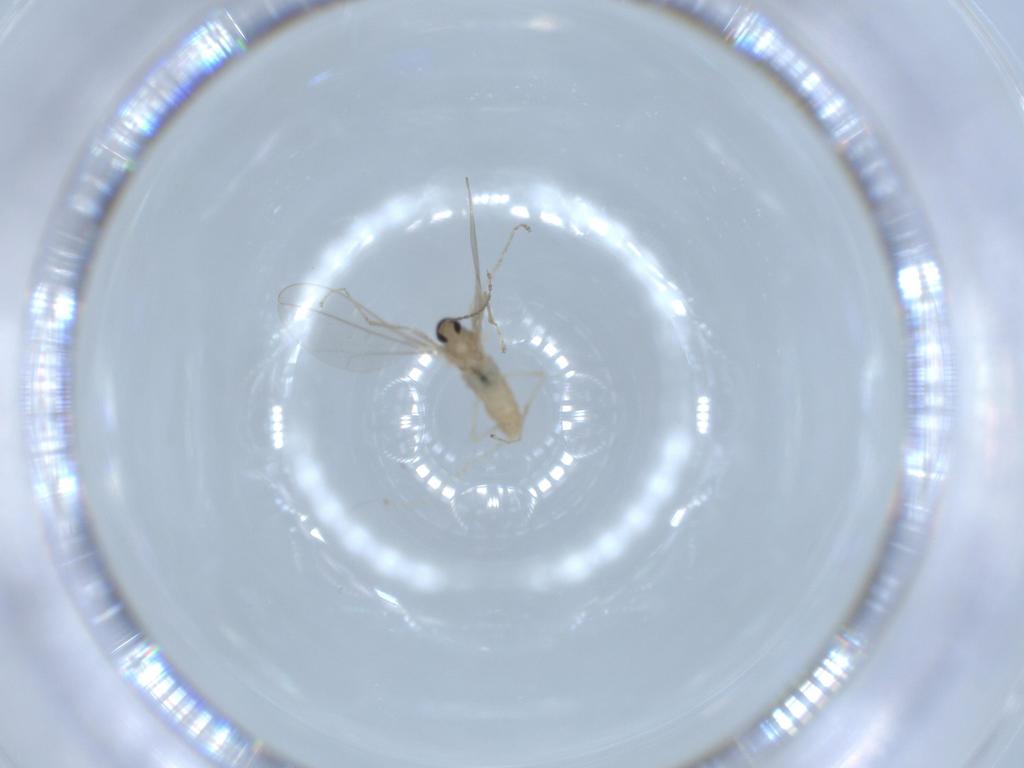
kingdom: Animalia
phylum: Arthropoda
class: Insecta
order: Diptera
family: Cecidomyiidae
